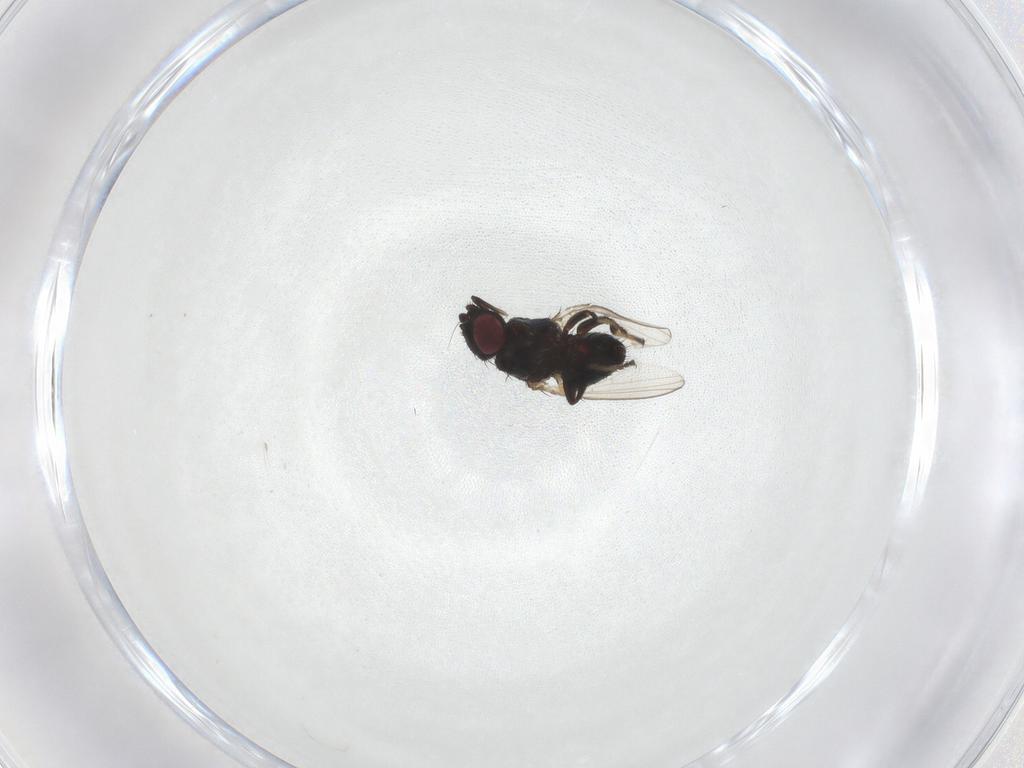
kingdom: Animalia
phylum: Arthropoda
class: Insecta
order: Diptera
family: Milichiidae
